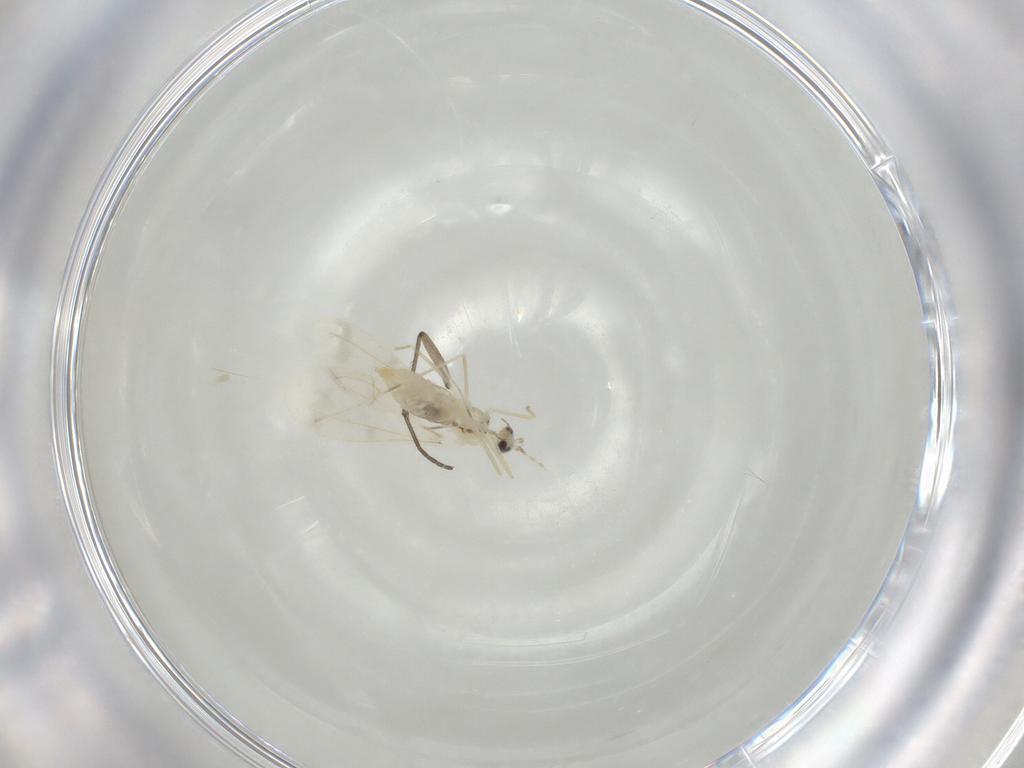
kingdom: Animalia
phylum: Arthropoda
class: Insecta
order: Diptera
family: Cecidomyiidae
